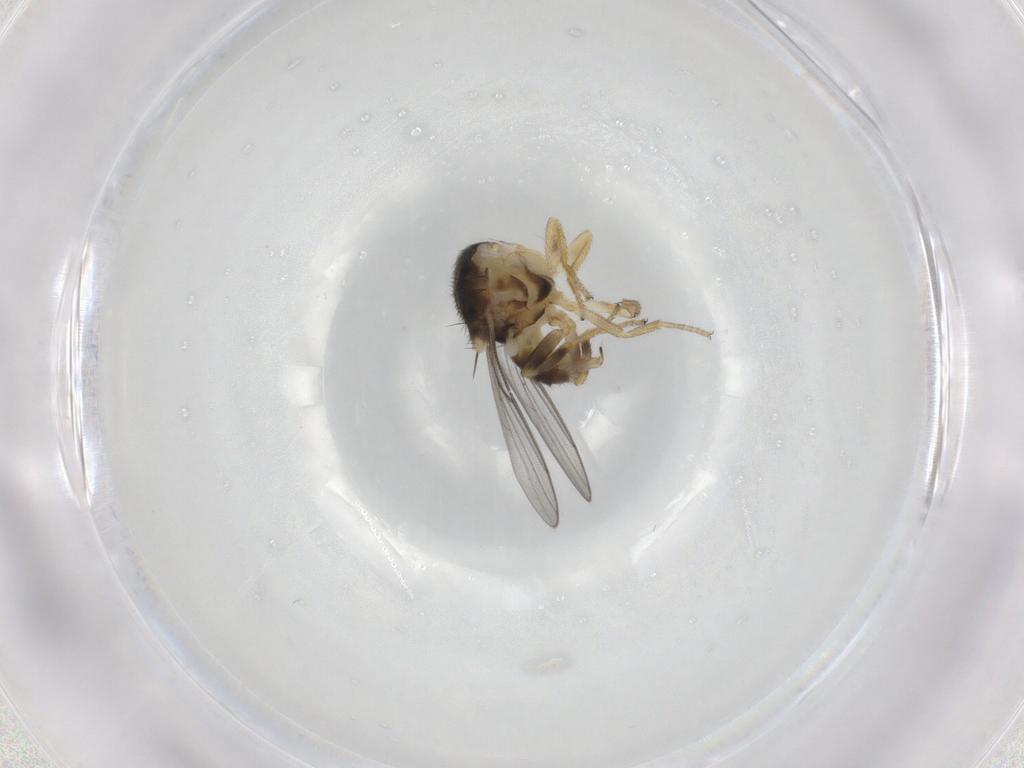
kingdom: Animalia
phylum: Arthropoda
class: Insecta
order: Diptera
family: Chloropidae
